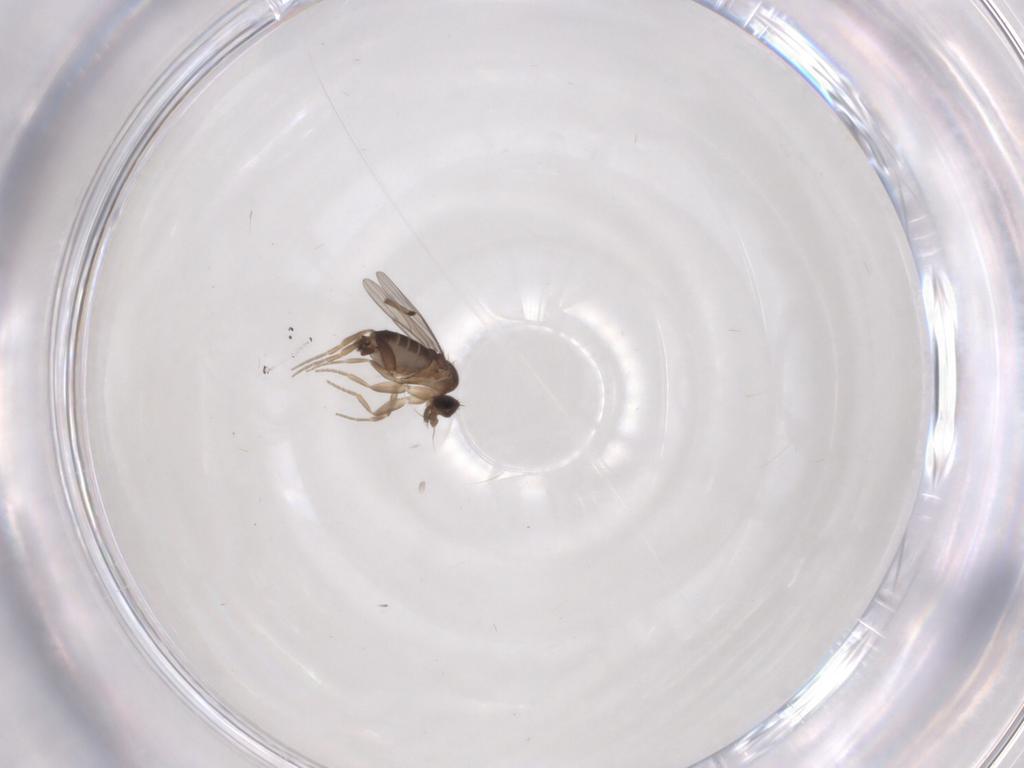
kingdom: Animalia
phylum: Arthropoda
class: Insecta
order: Diptera
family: Phoridae
